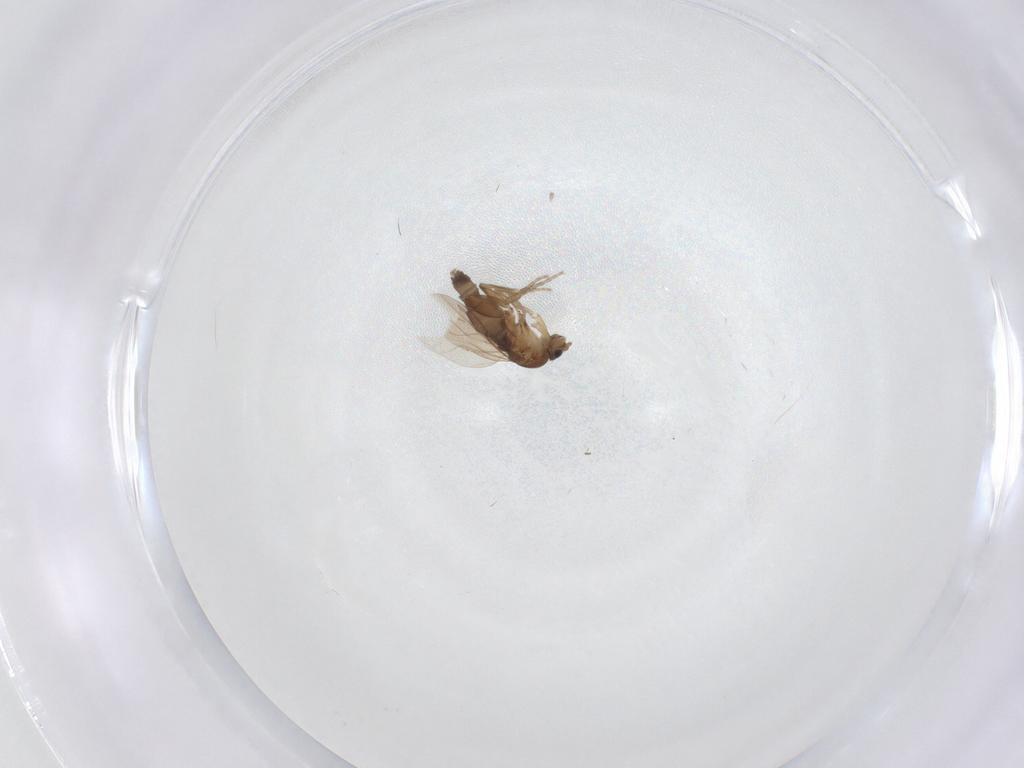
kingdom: Animalia
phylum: Arthropoda
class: Insecta
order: Diptera
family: Phoridae
